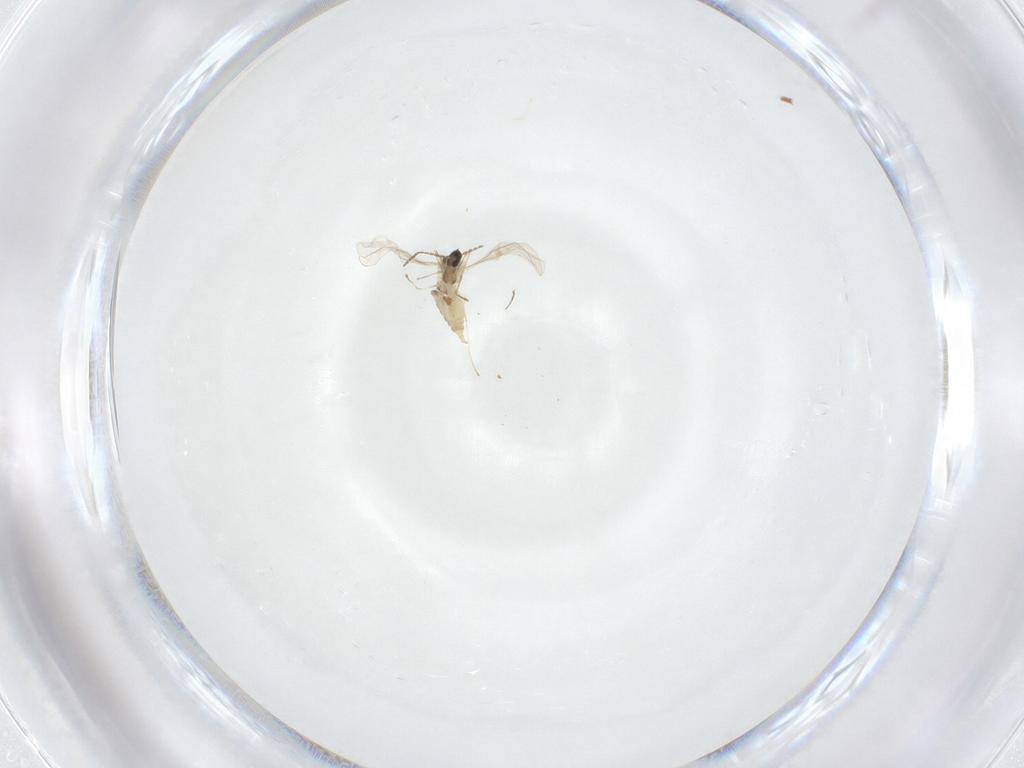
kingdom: Animalia
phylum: Arthropoda
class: Insecta
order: Diptera
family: Cecidomyiidae
